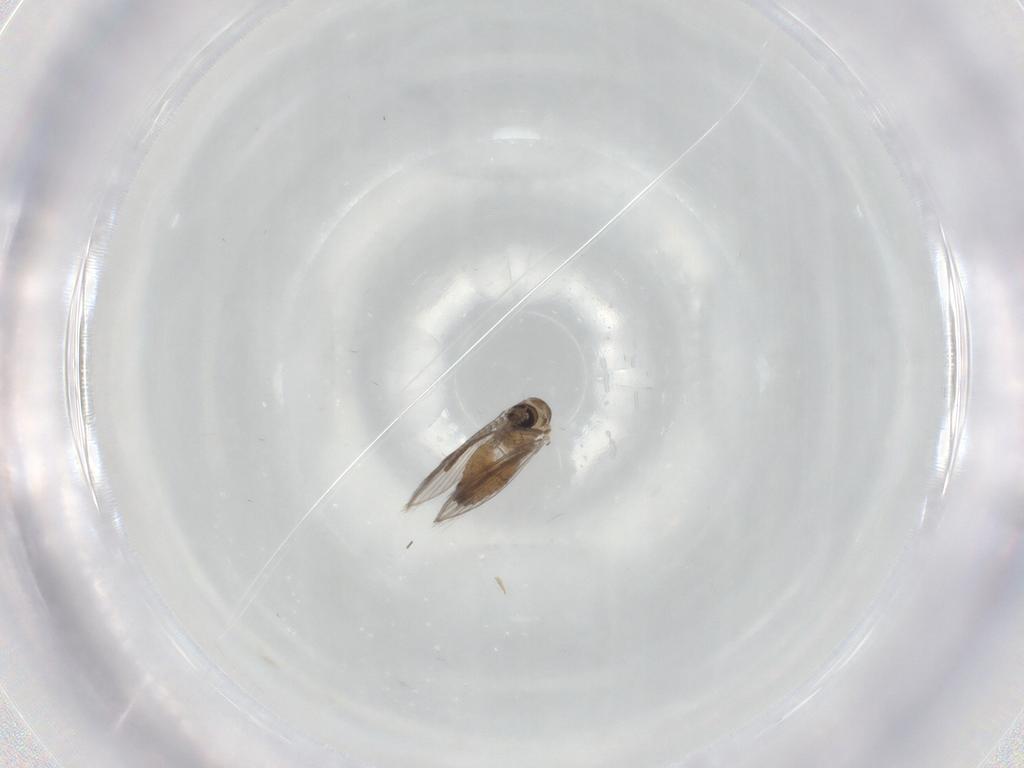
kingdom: Animalia
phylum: Arthropoda
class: Insecta
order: Diptera
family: Psychodidae
